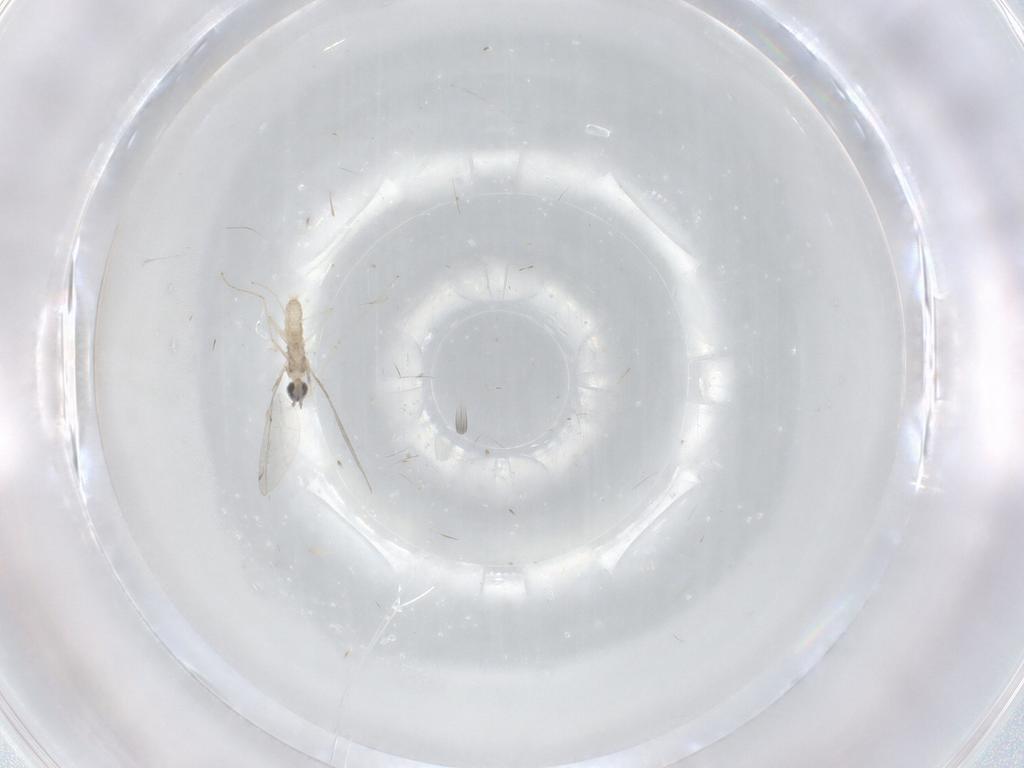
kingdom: Animalia
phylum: Arthropoda
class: Insecta
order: Diptera
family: Cecidomyiidae
